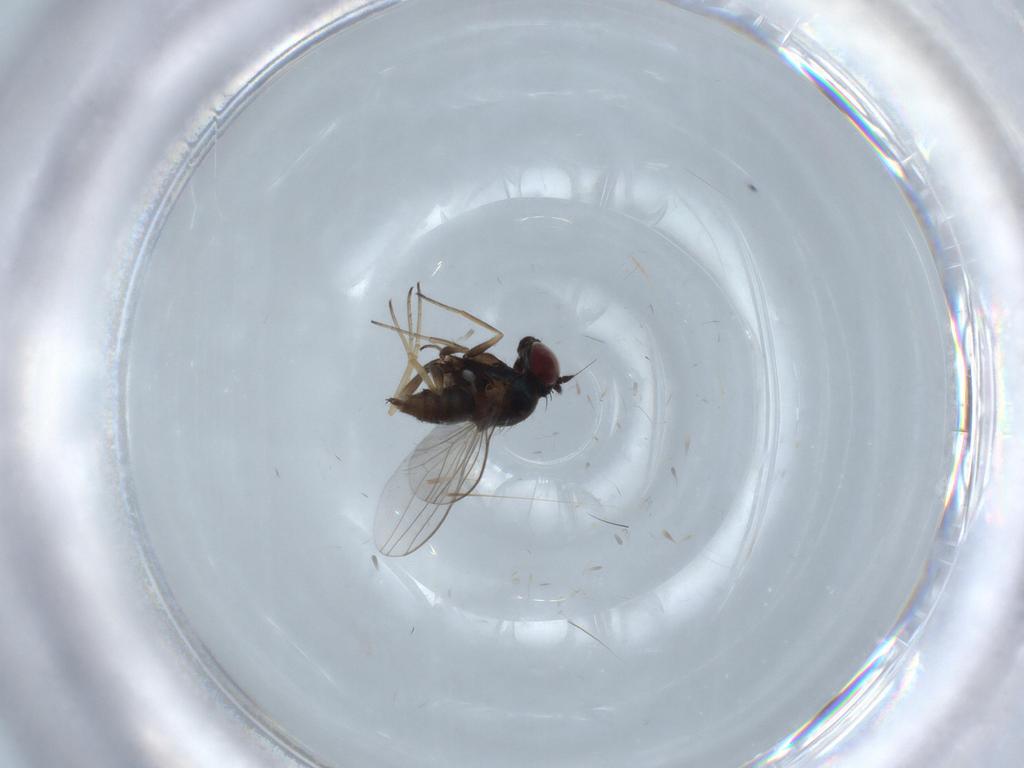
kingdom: Animalia
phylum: Arthropoda
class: Insecta
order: Diptera
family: Dolichopodidae
